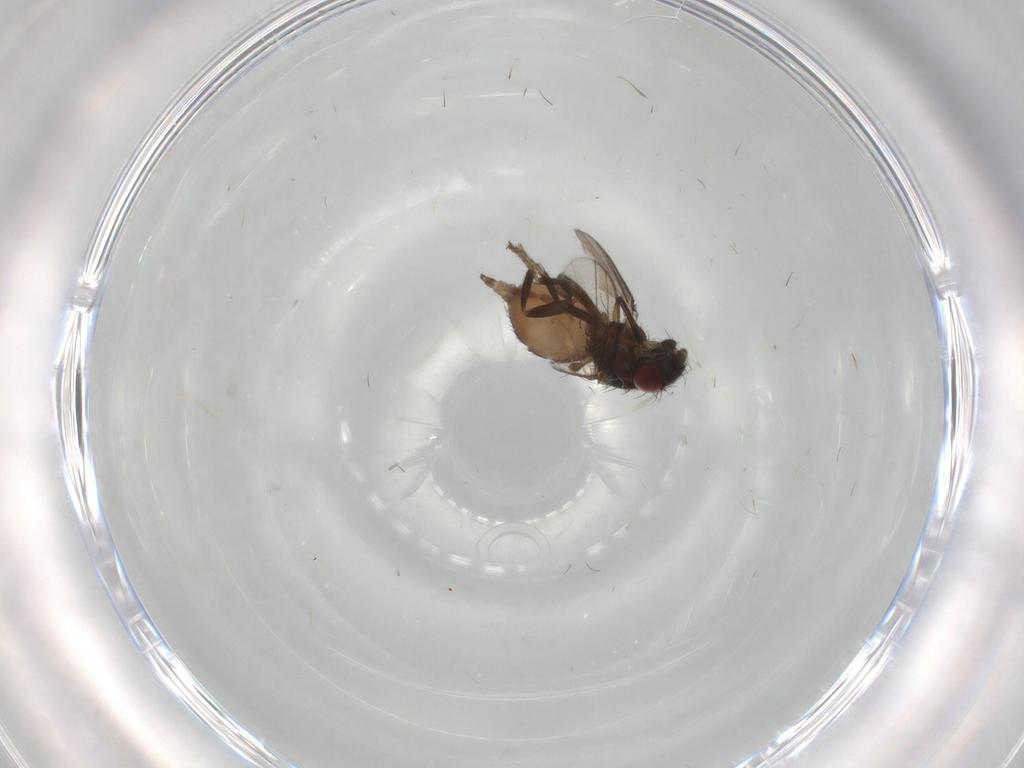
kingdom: Animalia
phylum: Arthropoda
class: Insecta
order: Diptera
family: Milichiidae
